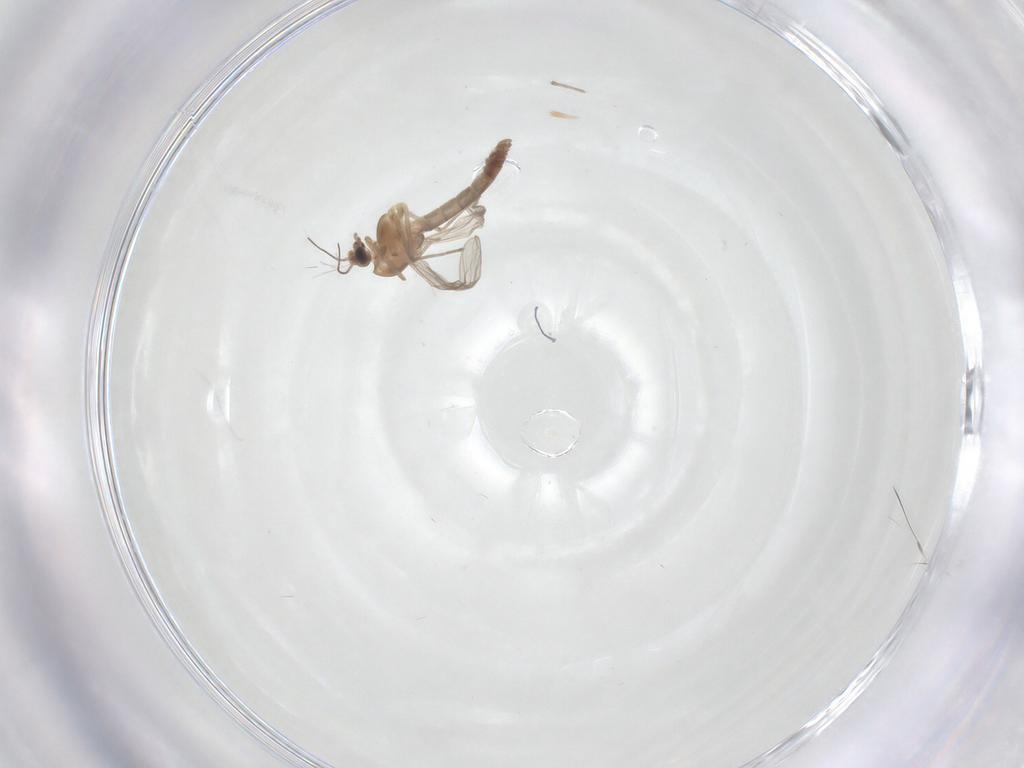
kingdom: Animalia
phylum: Arthropoda
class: Insecta
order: Diptera
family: Chironomidae
